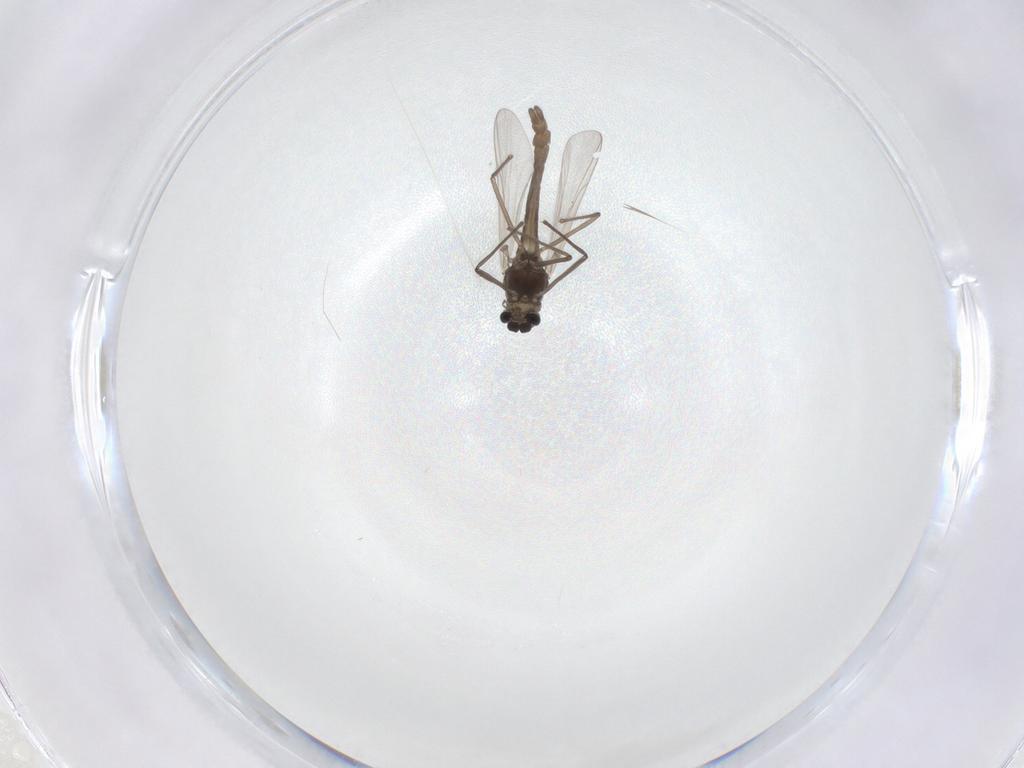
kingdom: Animalia
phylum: Arthropoda
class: Insecta
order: Diptera
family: Chironomidae
